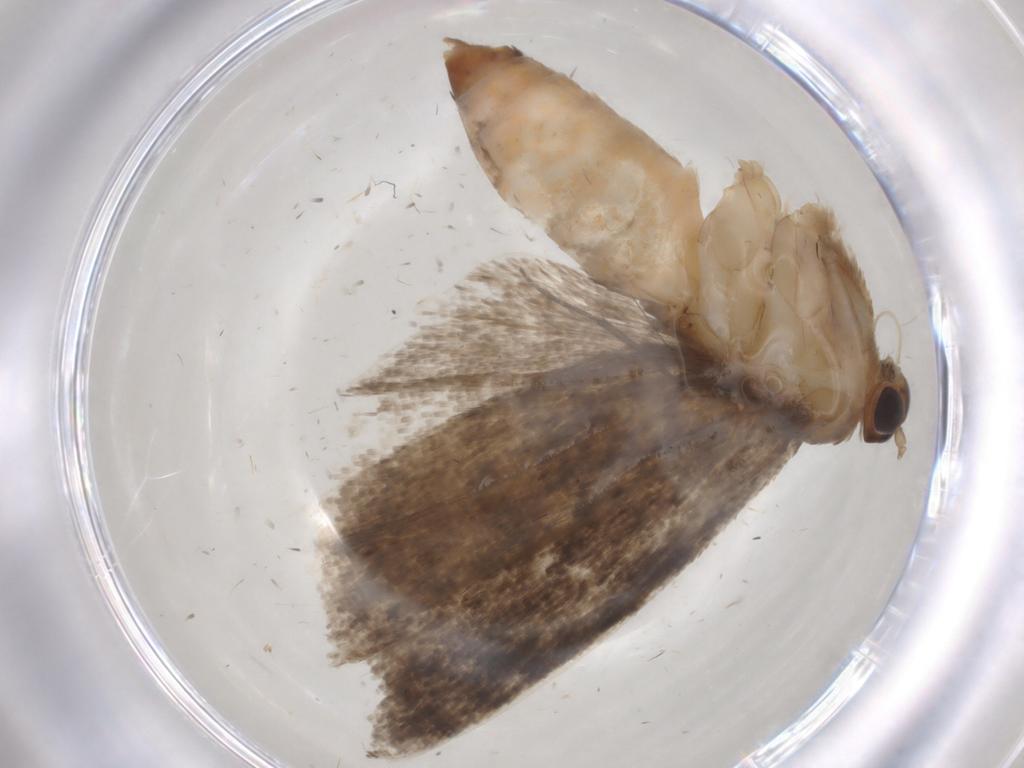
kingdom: Animalia
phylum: Arthropoda
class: Insecta
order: Lepidoptera
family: Tortricidae
